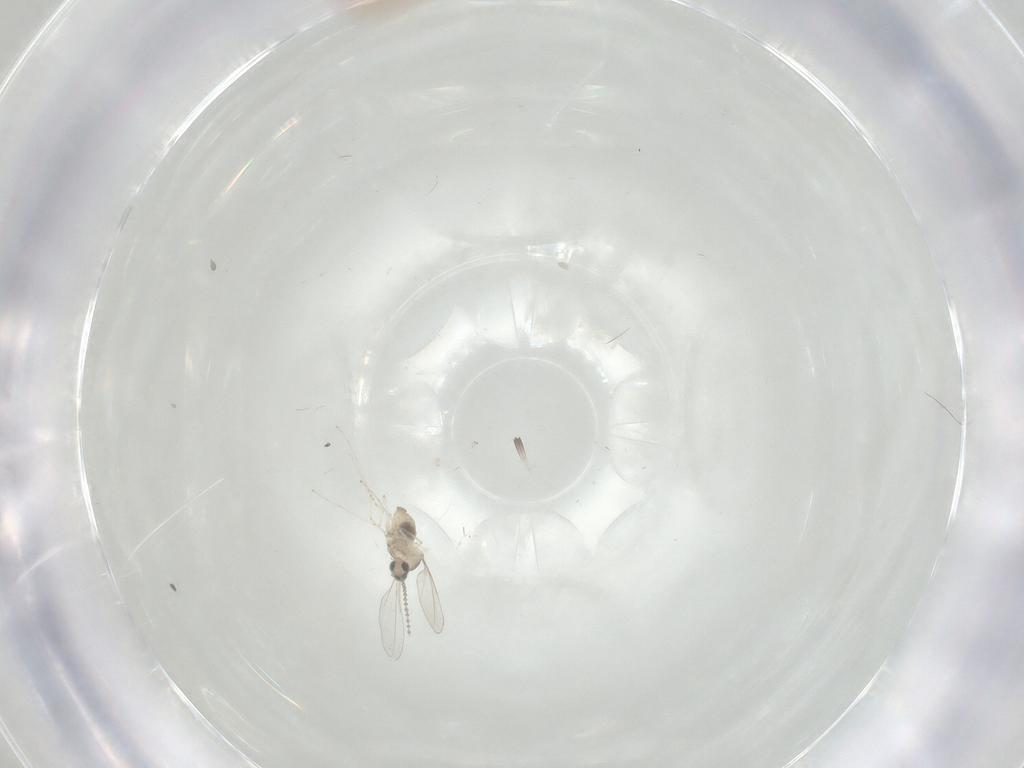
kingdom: Animalia
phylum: Arthropoda
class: Insecta
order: Diptera
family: Cecidomyiidae
